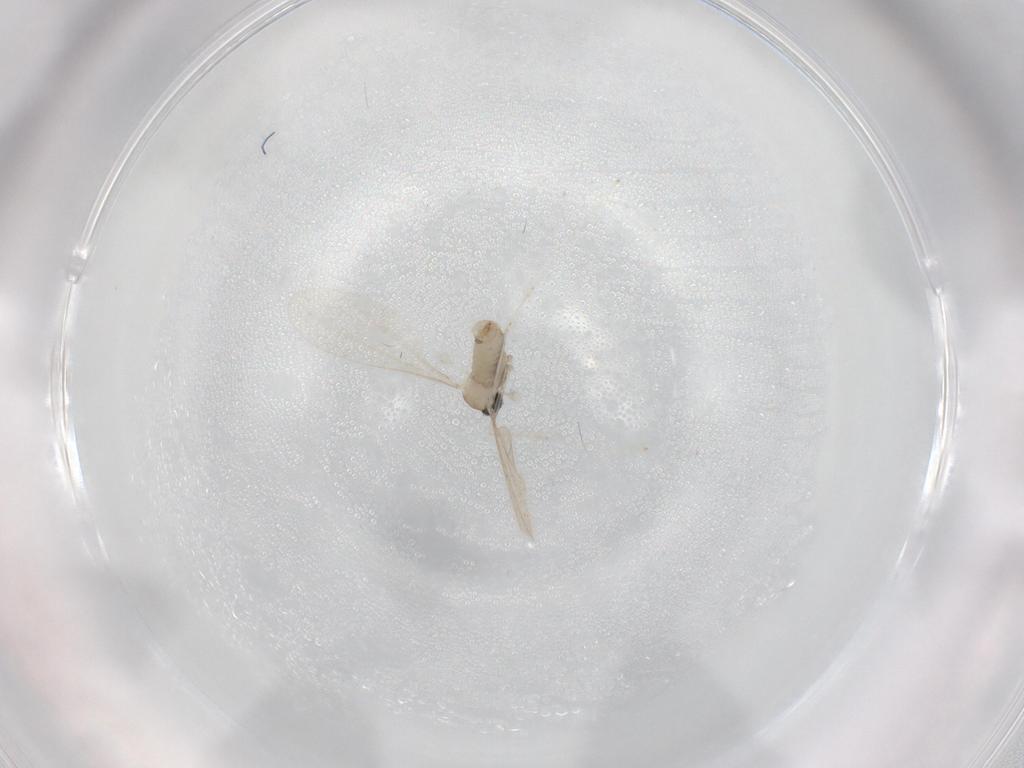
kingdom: Animalia
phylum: Arthropoda
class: Insecta
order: Diptera
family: Cecidomyiidae
